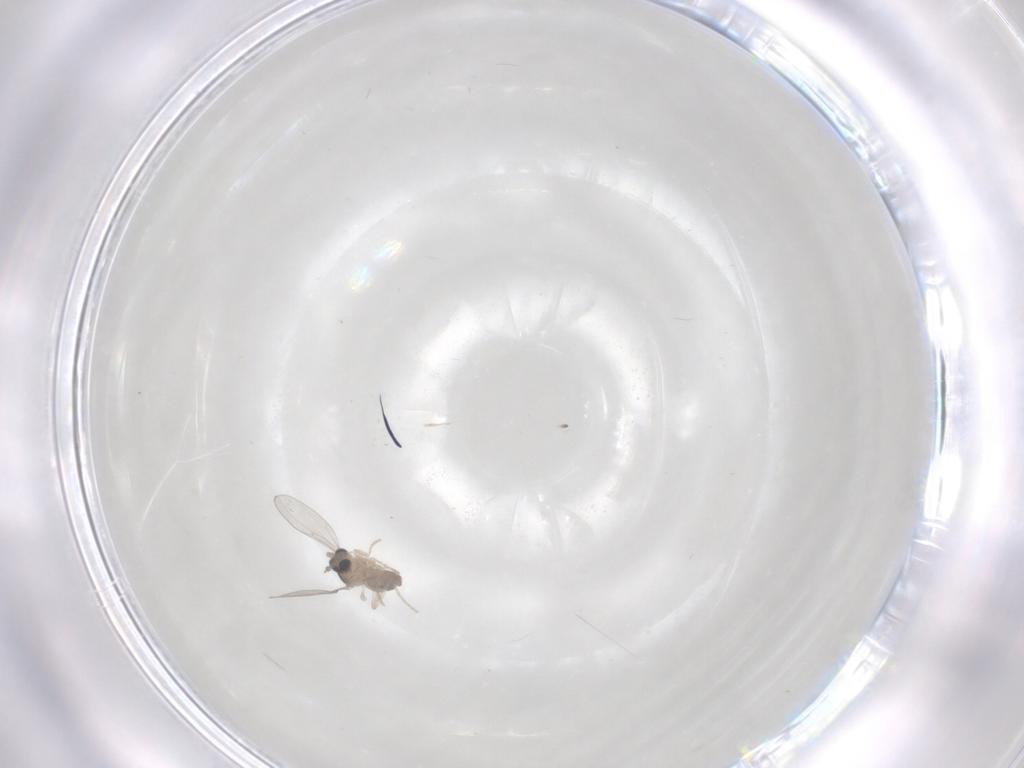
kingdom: Animalia
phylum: Arthropoda
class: Insecta
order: Diptera
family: Cecidomyiidae
